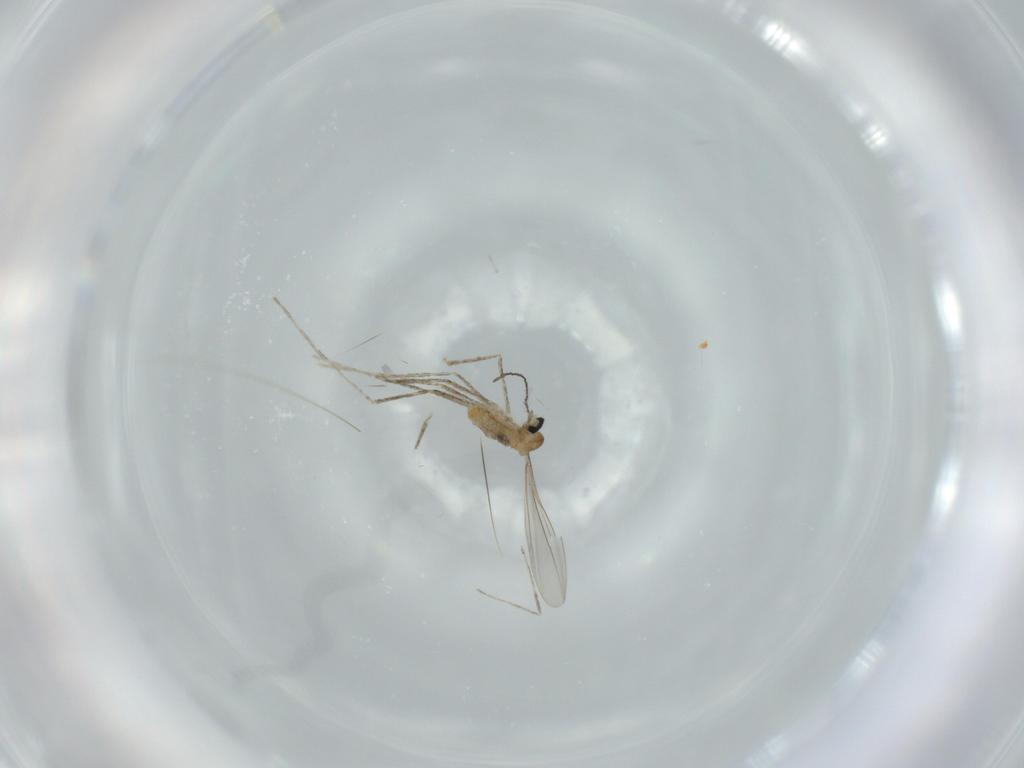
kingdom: Animalia
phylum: Arthropoda
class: Insecta
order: Diptera
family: Cecidomyiidae
